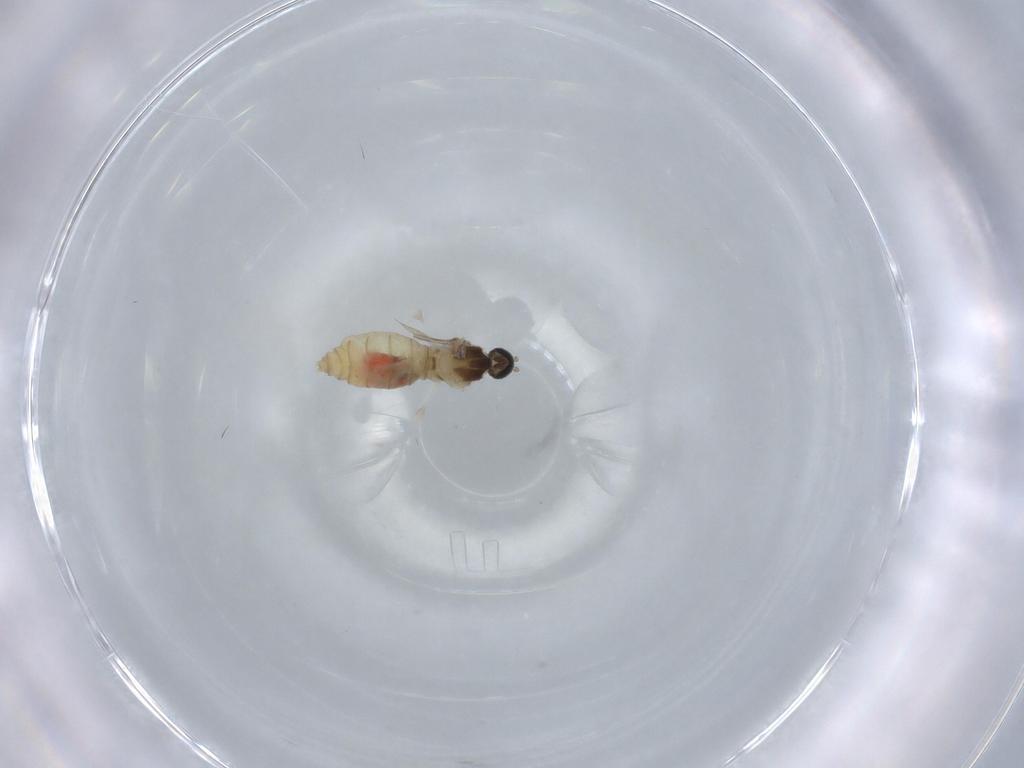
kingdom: Animalia
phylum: Arthropoda
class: Insecta
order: Diptera
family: Cecidomyiidae
